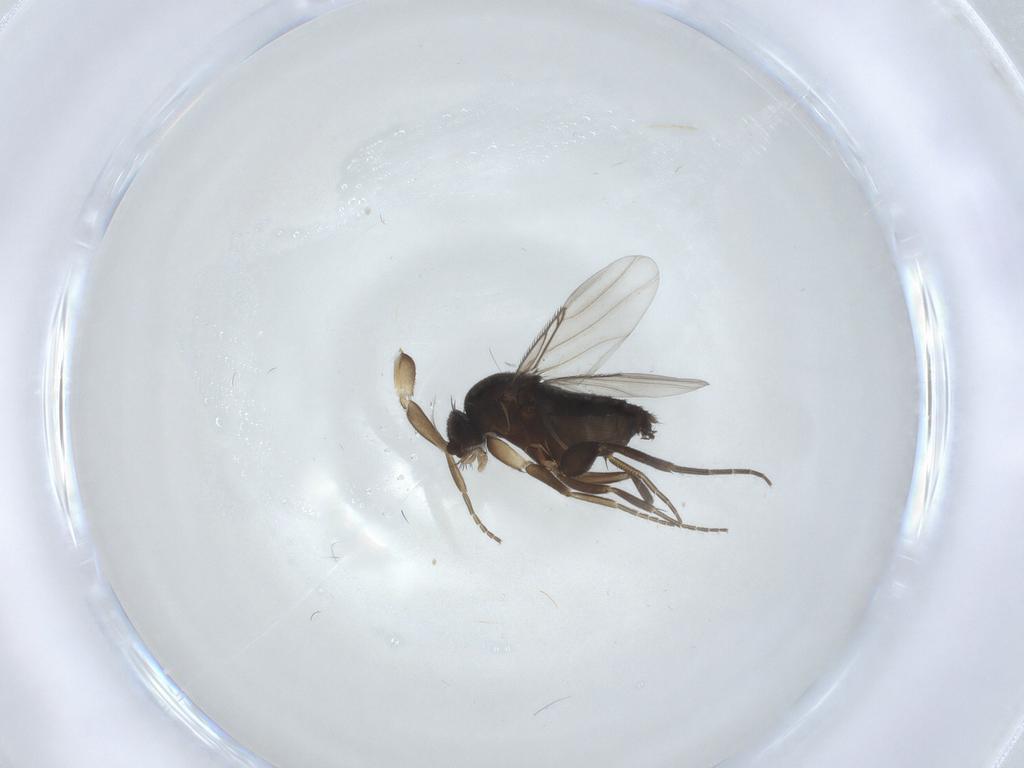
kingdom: Animalia
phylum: Arthropoda
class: Insecta
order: Diptera
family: Phoridae
